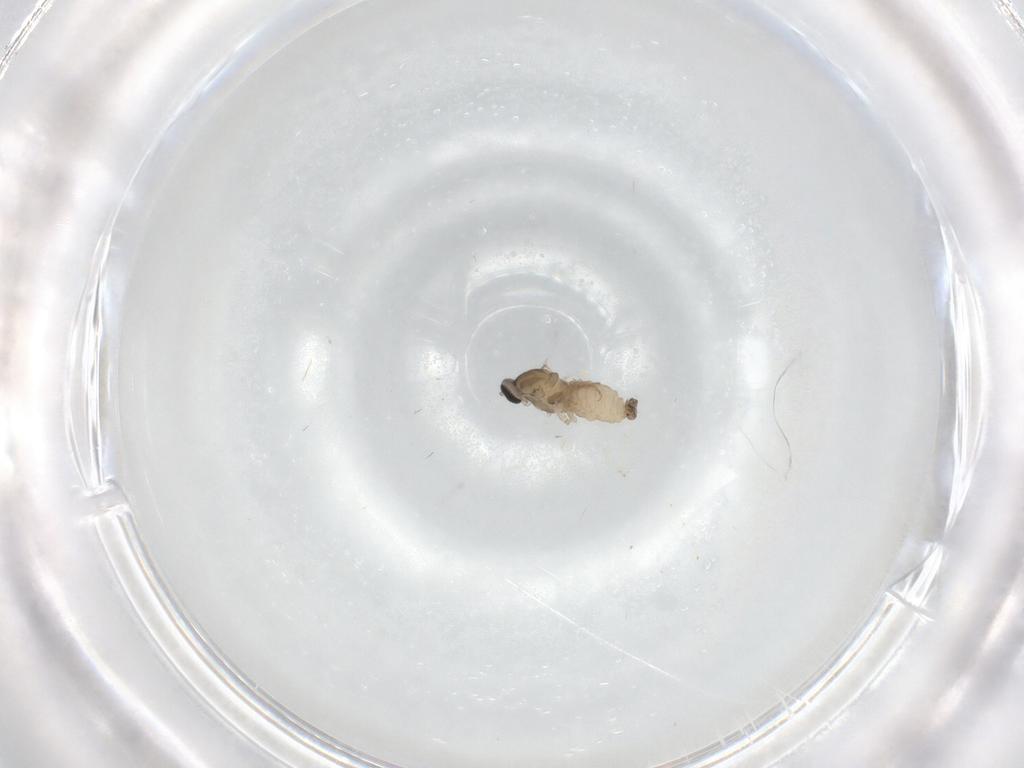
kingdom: Animalia
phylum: Arthropoda
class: Insecta
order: Diptera
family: Cecidomyiidae
